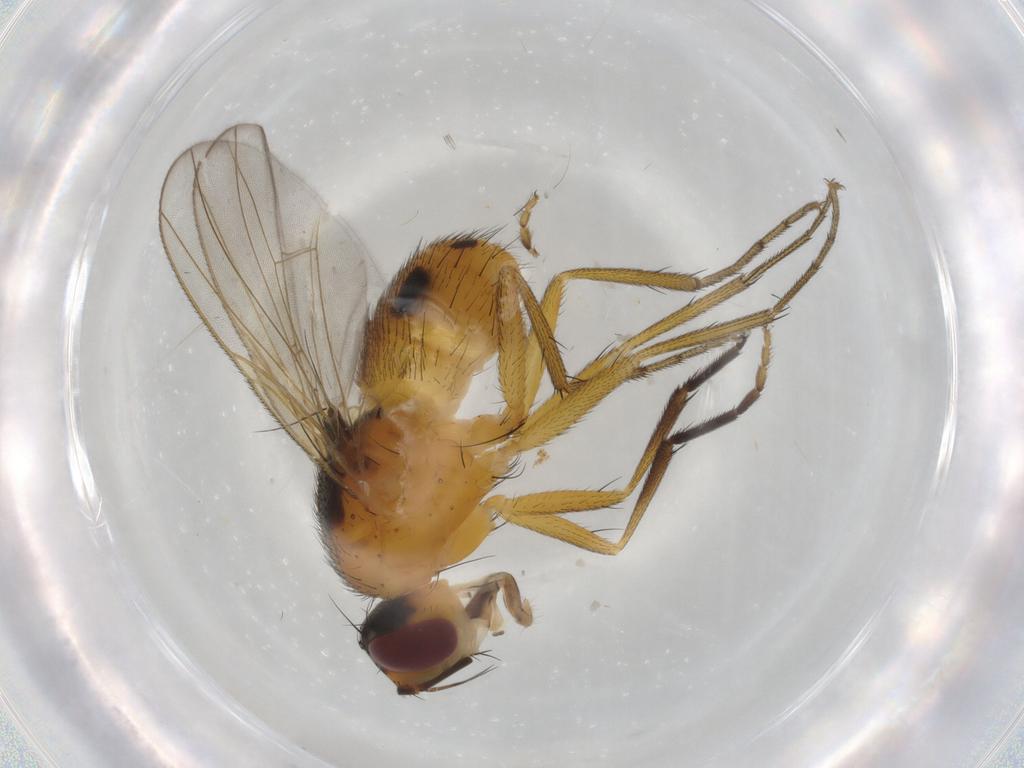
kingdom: Animalia
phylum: Arthropoda
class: Insecta
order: Diptera
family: Muscidae
